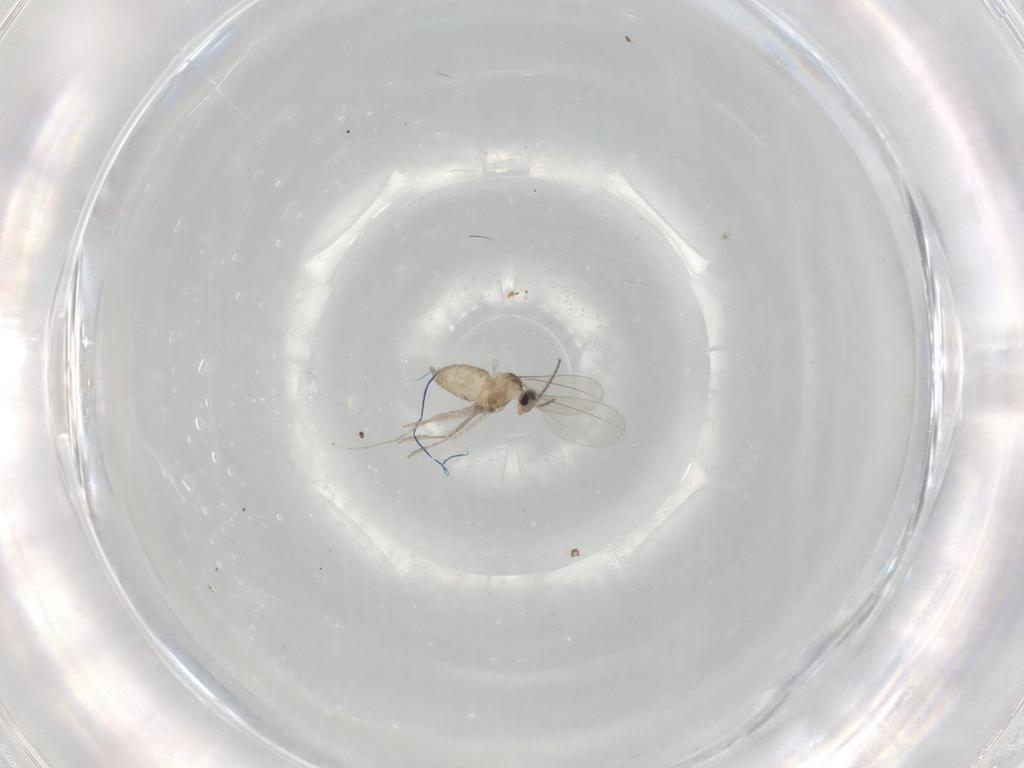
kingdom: Animalia
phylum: Arthropoda
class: Insecta
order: Diptera
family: Cecidomyiidae
